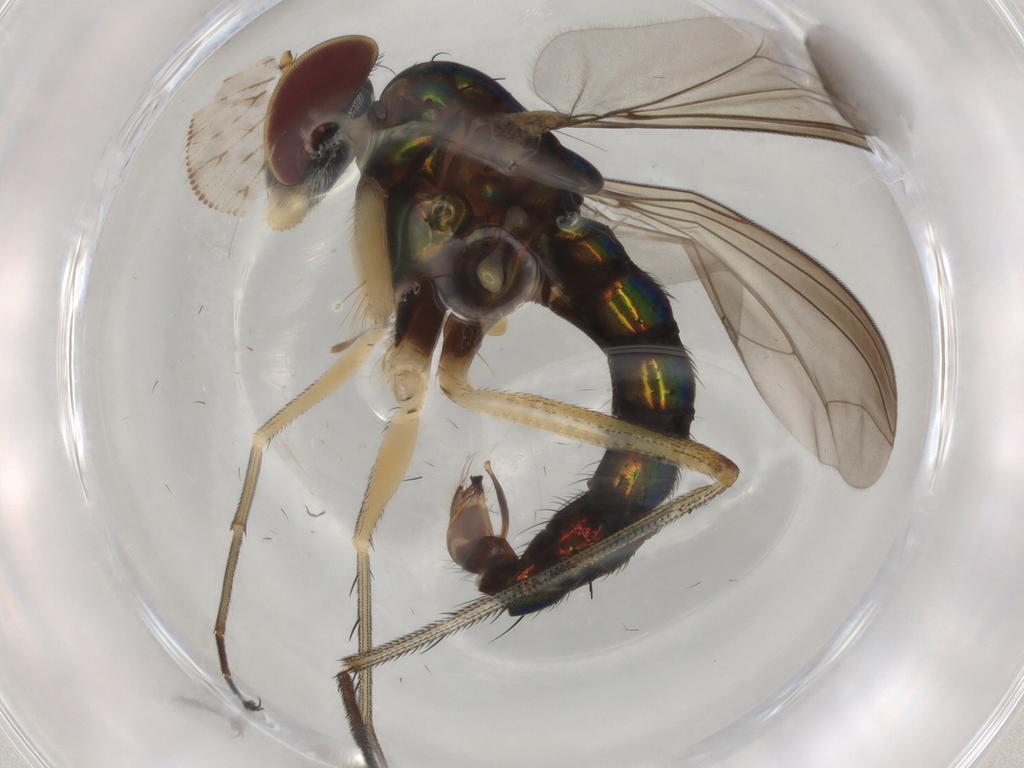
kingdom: Animalia
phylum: Arthropoda
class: Insecta
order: Diptera
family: Dolichopodidae
